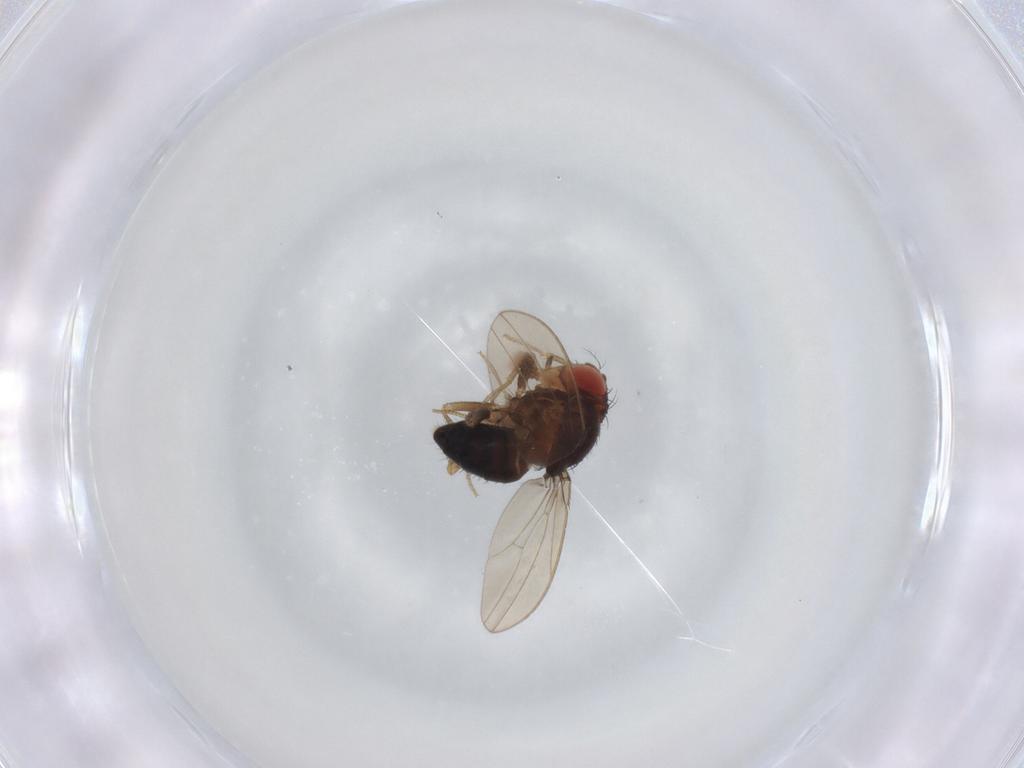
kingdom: Animalia
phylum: Arthropoda
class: Insecta
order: Diptera
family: Drosophilidae
